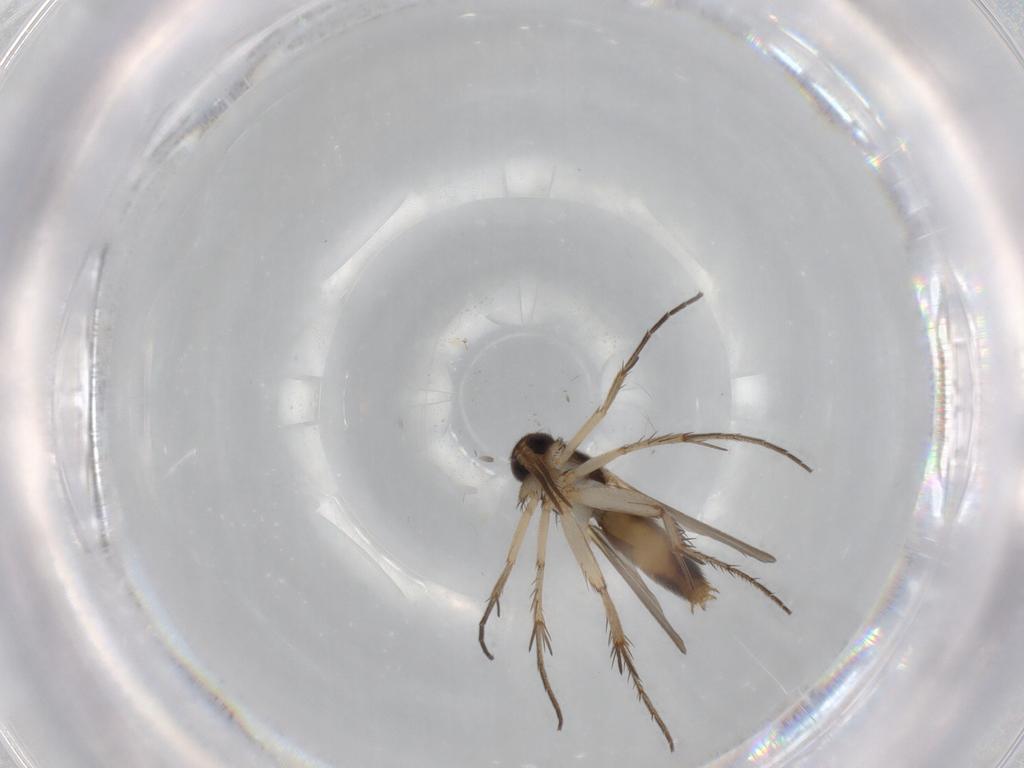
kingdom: Animalia
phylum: Arthropoda
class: Insecta
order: Diptera
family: Mycetophilidae
